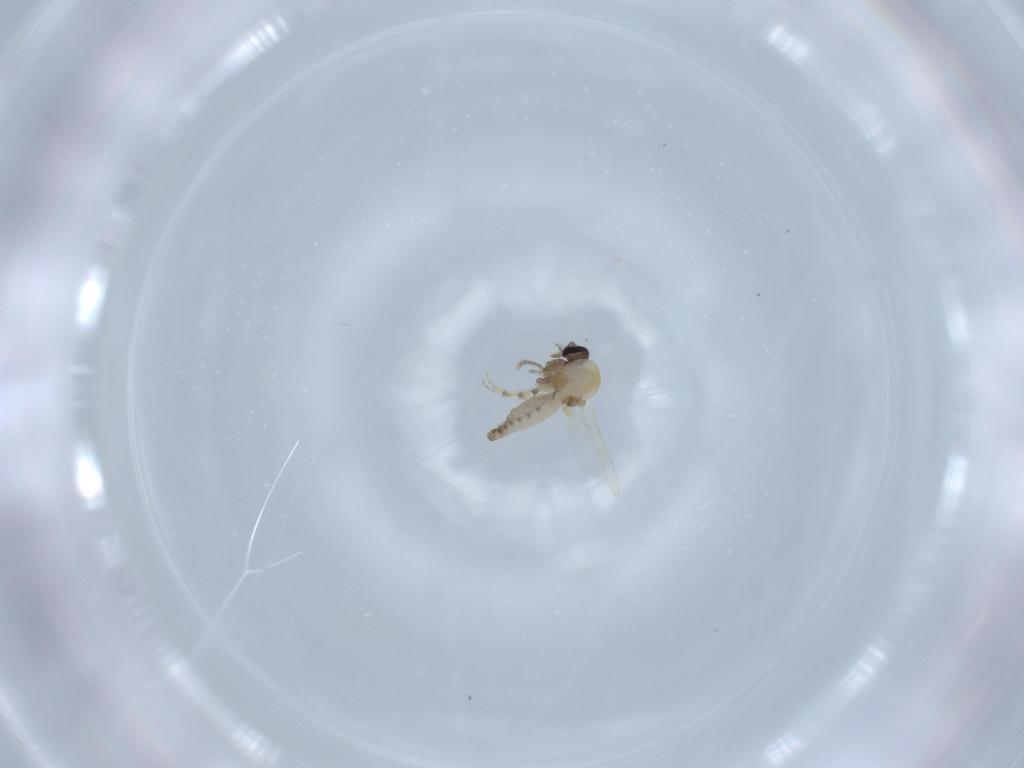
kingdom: Animalia
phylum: Arthropoda
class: Insecta
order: Diptera
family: Ceratopogonidae
